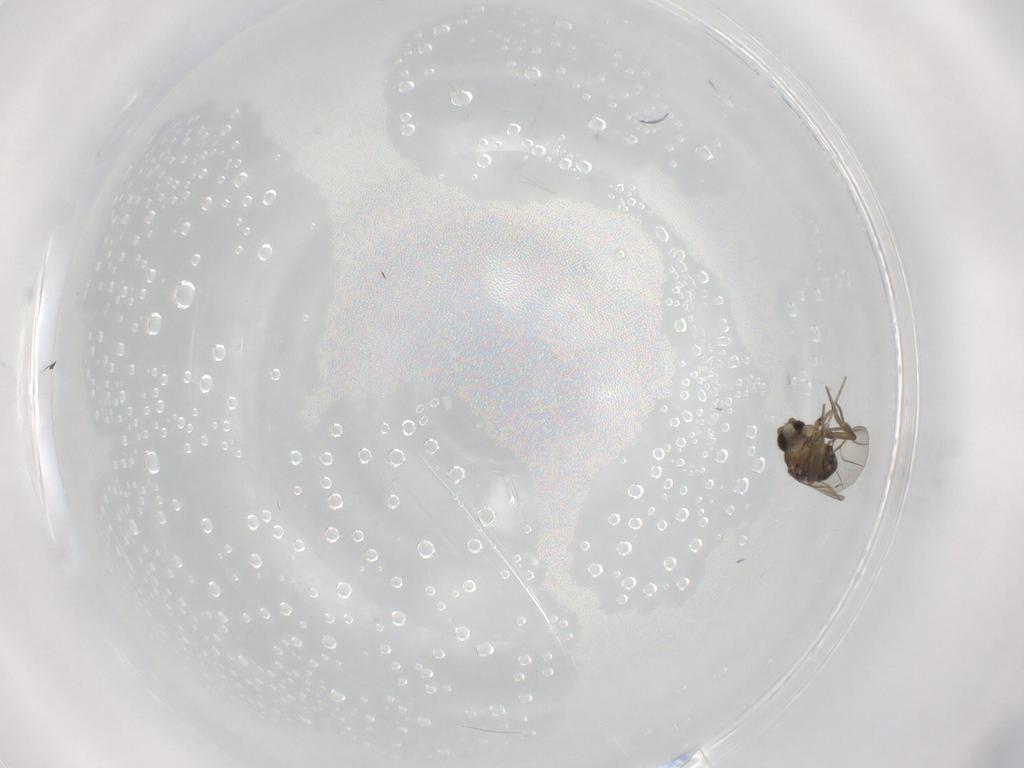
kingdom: Animalia
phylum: Arthropoda
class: Insecta
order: Diptera
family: Phoridae
